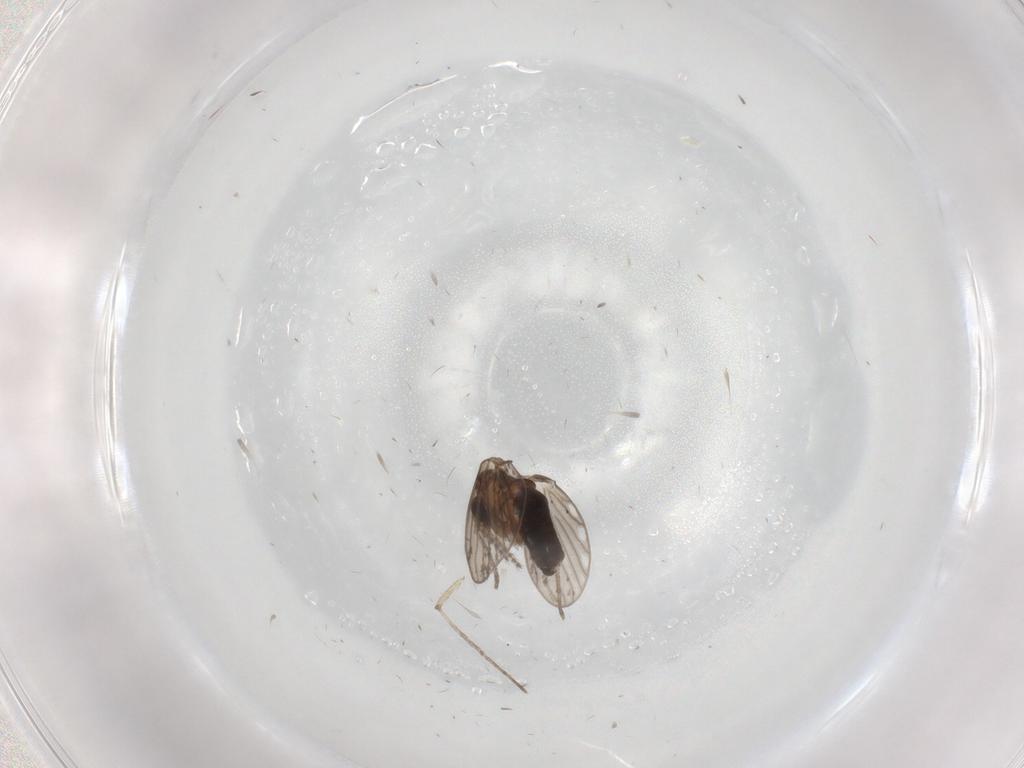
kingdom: Animalia
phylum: Arthropoda
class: Insecta
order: Diptera
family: Psychodidae
